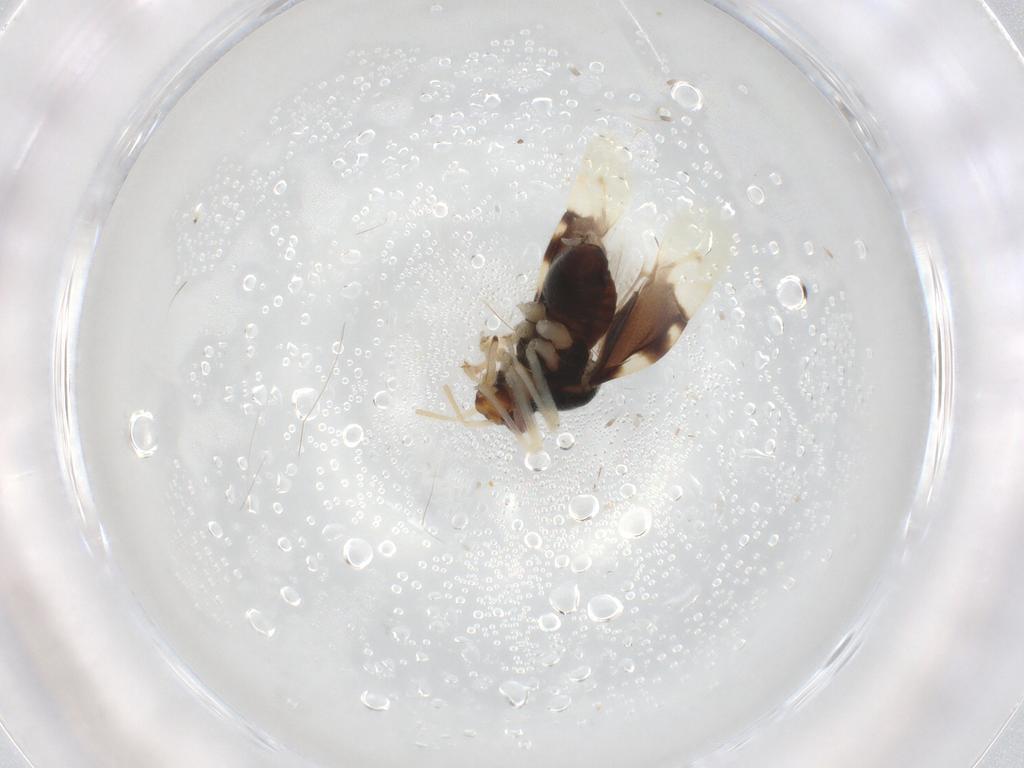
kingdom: Animalia
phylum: Arthropoda
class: Insecta
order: Hemiptera
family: Miridae
